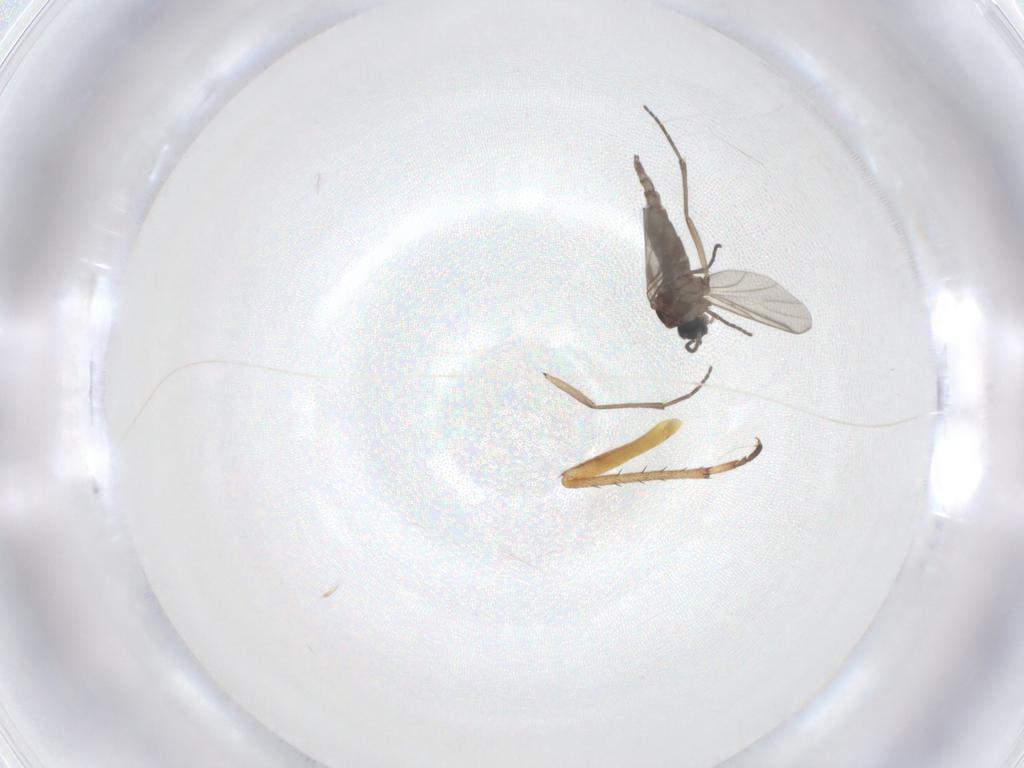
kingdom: Animalia
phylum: Arthropoda
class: Insecta
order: Diptera
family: Sciaridae
